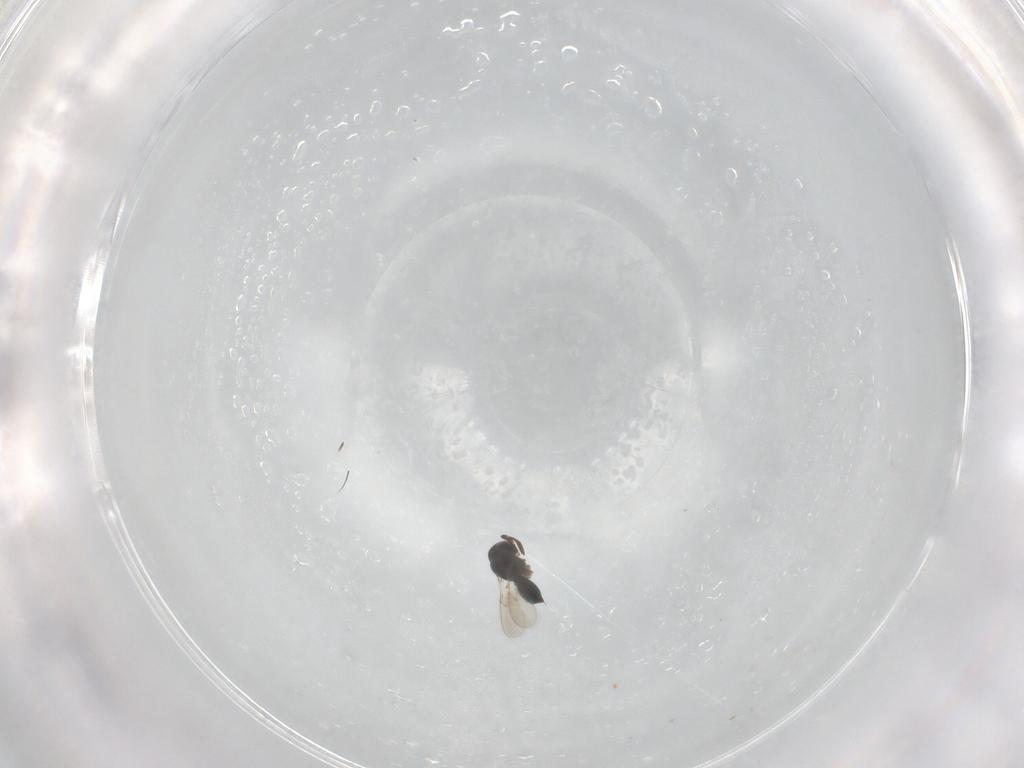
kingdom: Animalia
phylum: Arthropoda
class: Insecta
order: Hymenoptera
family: Scelionidae
